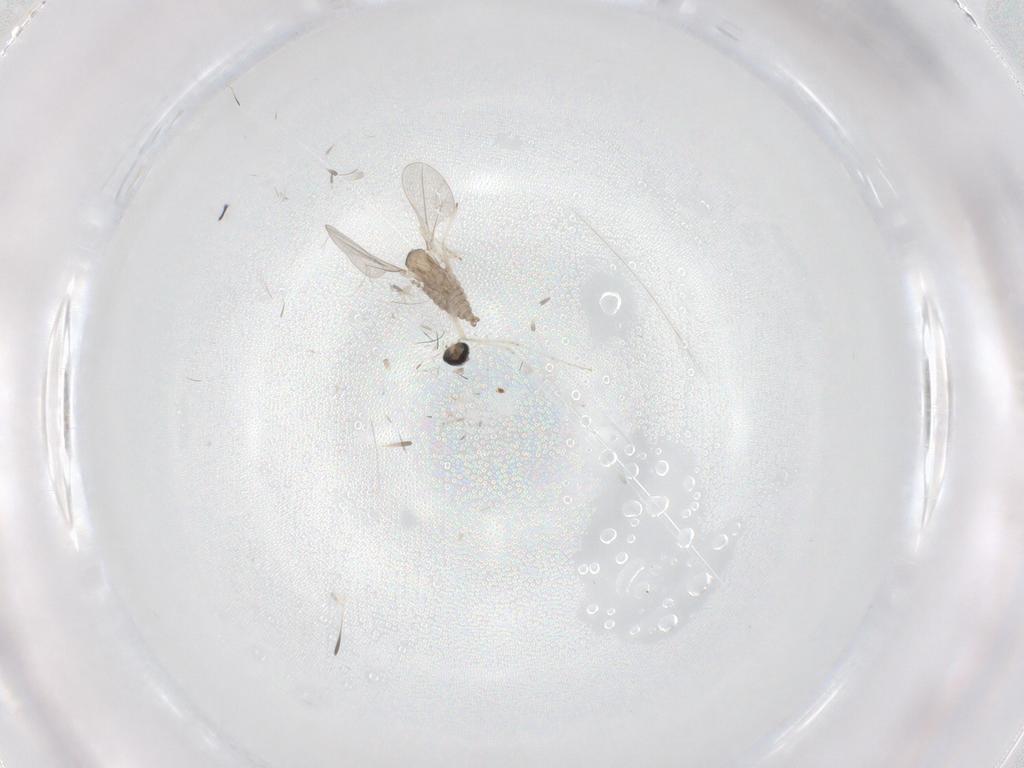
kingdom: Animalia
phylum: Arthropoda
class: Insecta
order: Diptera
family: Cecidomyiidae
